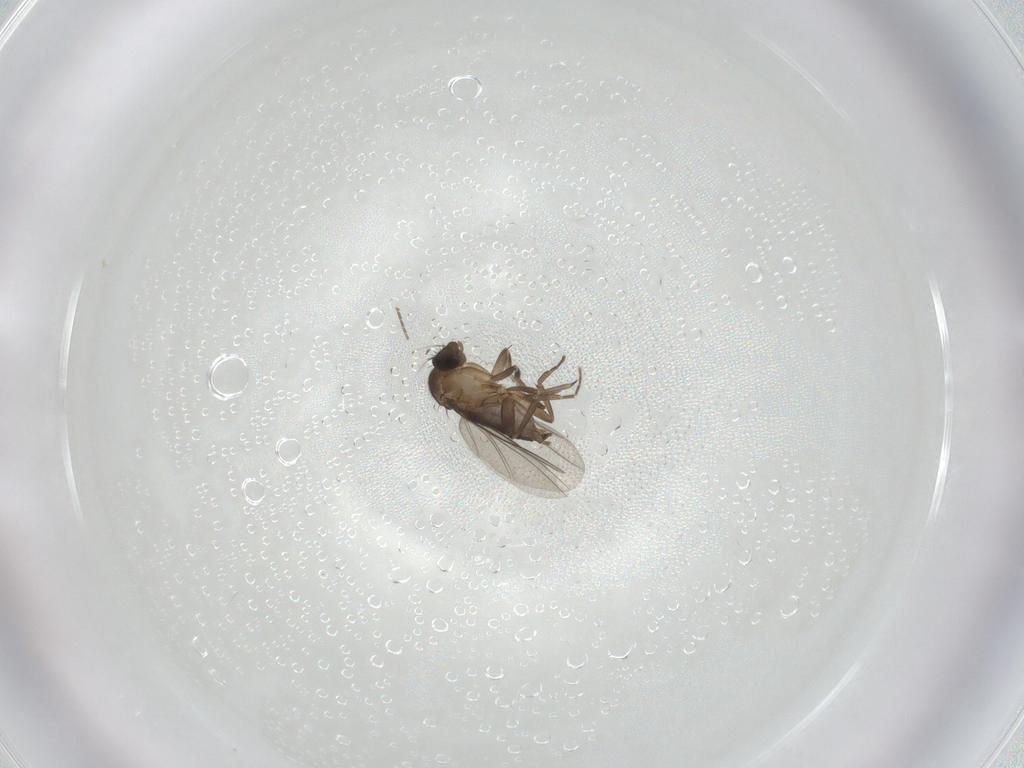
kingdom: Animalia
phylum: Arthropoda
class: Insecta
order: Diptera
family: Phoridae
